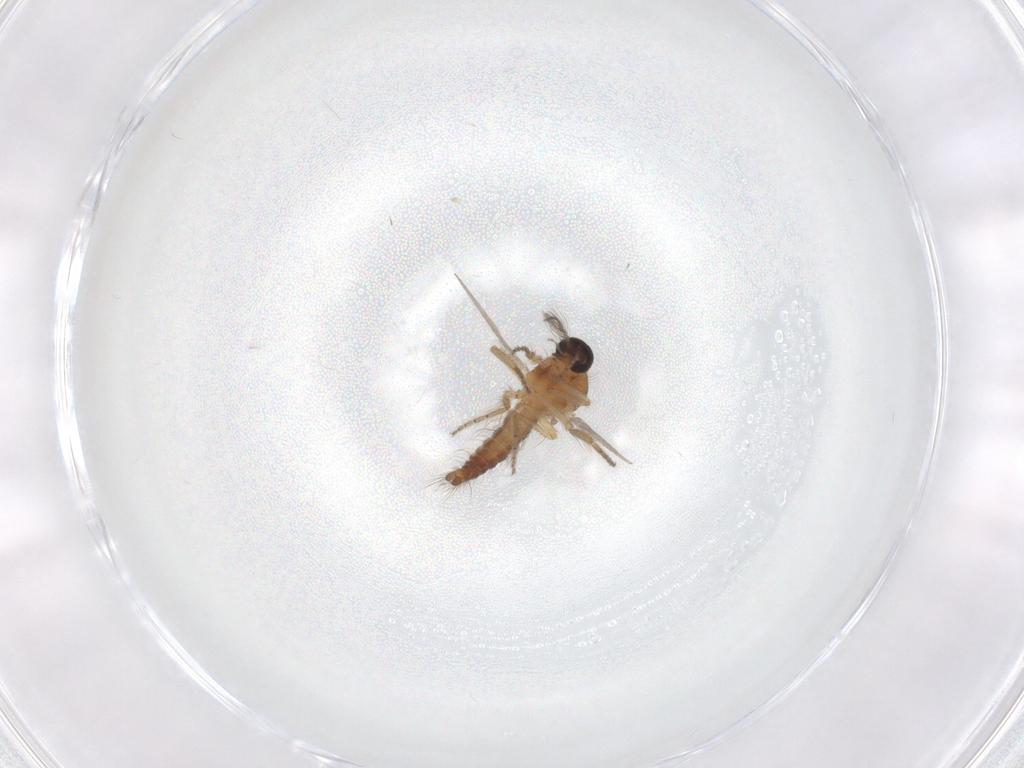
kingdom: Animalia
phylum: Arthropoda
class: Insecta
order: Diptera
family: Ceratopogonidae
